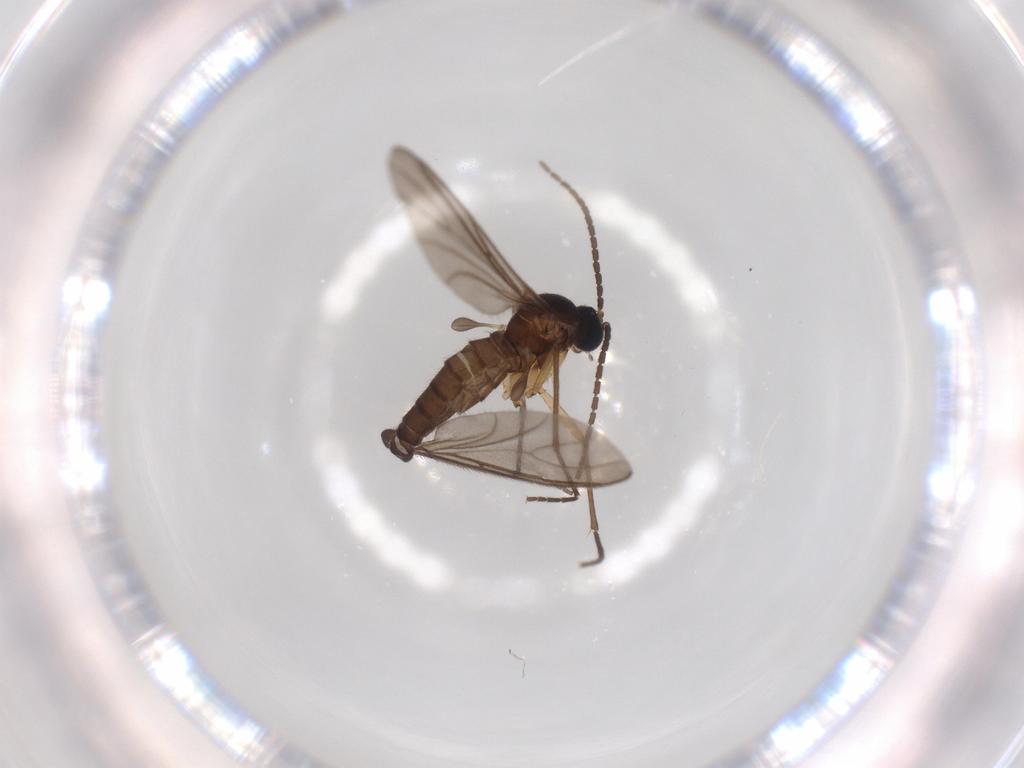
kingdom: Animalia
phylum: Arthropoda
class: Insecta
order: Diptera
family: Sciaridae
